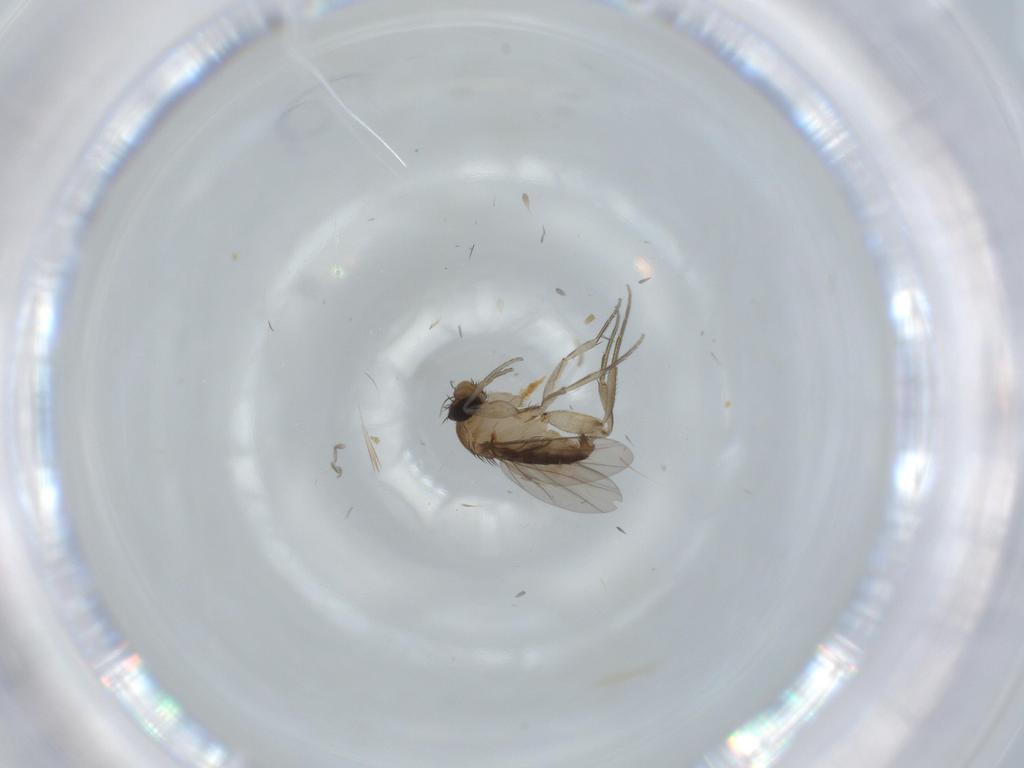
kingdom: Animalia
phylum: Arthropoda
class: Insecta
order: Diptera
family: Phoridae
